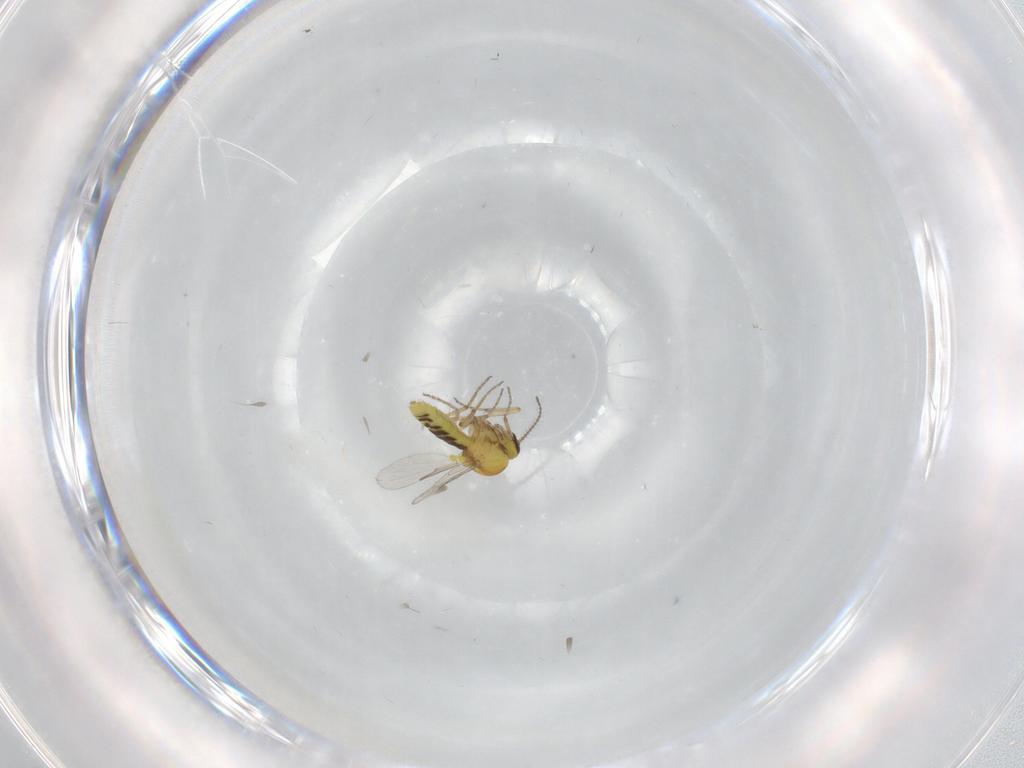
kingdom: Animalia
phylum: Arthropoda
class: Insecta
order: Diptera
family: Ceratopogonidae
